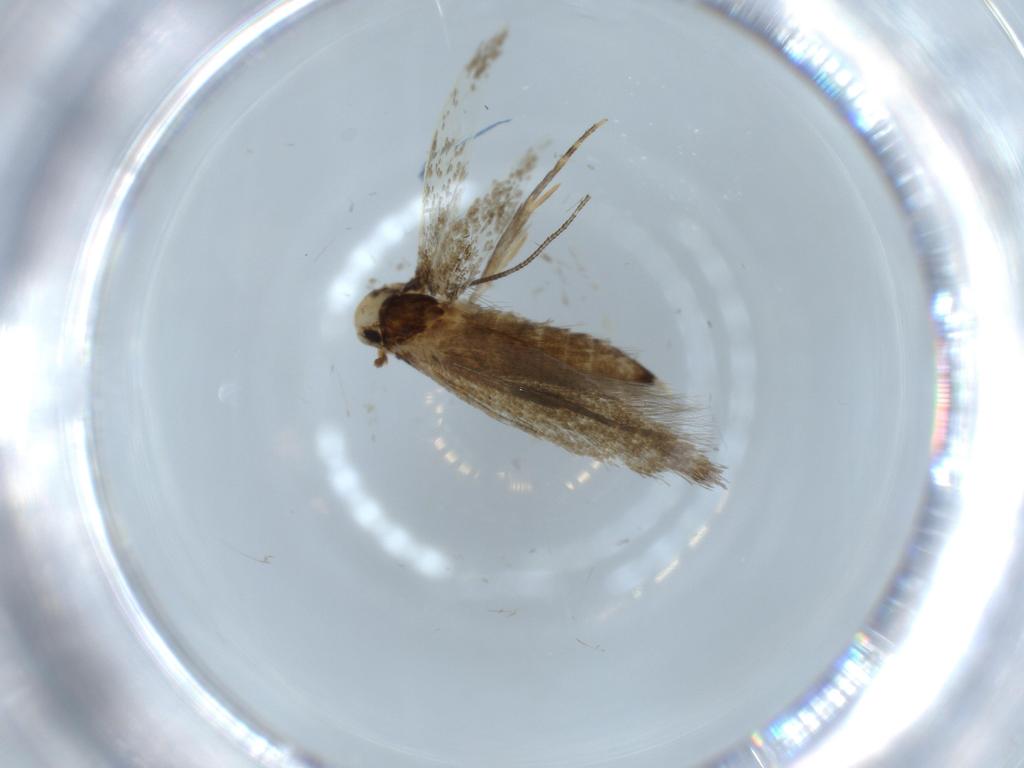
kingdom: Animalia
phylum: Arthropoda
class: Insecta
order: Lepidoptera
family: Tineidae
